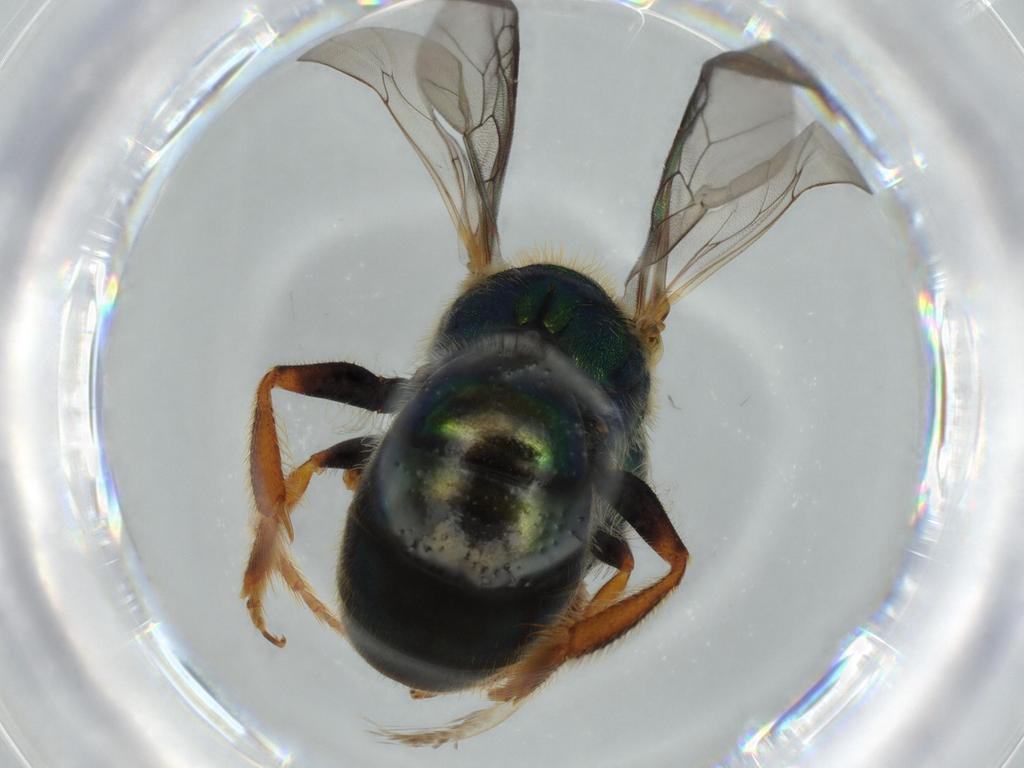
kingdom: Animalia
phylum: Arthropoda
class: Insecta
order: Hymenoptera
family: Halictidae
